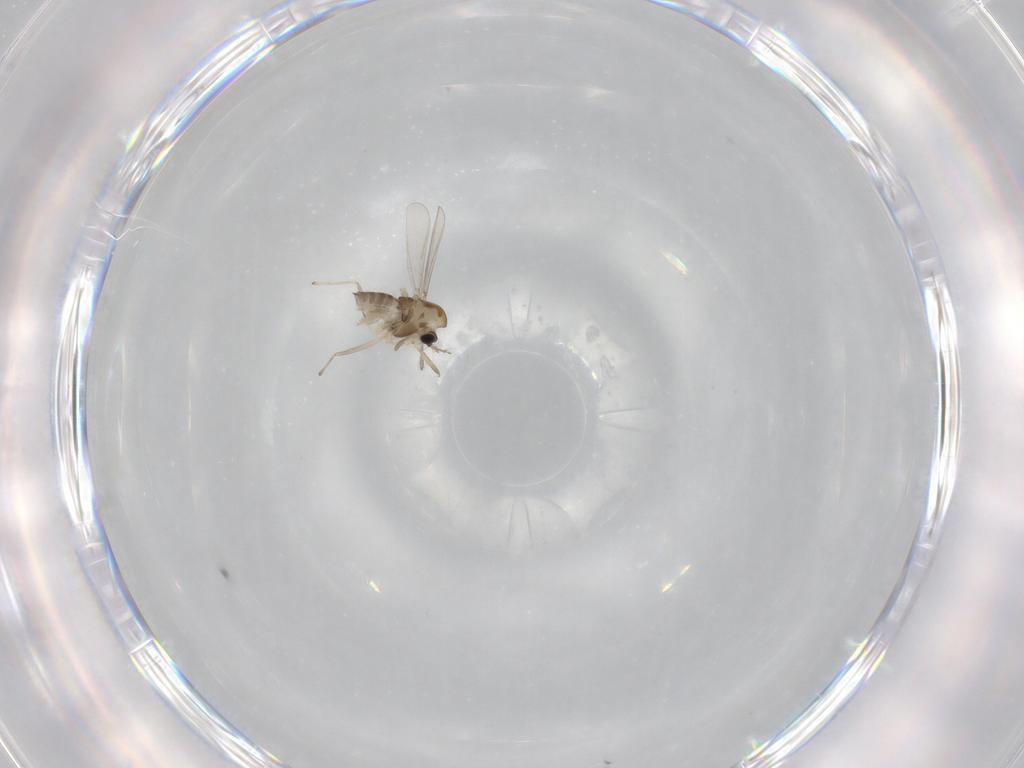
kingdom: Animalia
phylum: Arthropoda
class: Insecta
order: Diptera
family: Chironomidae
